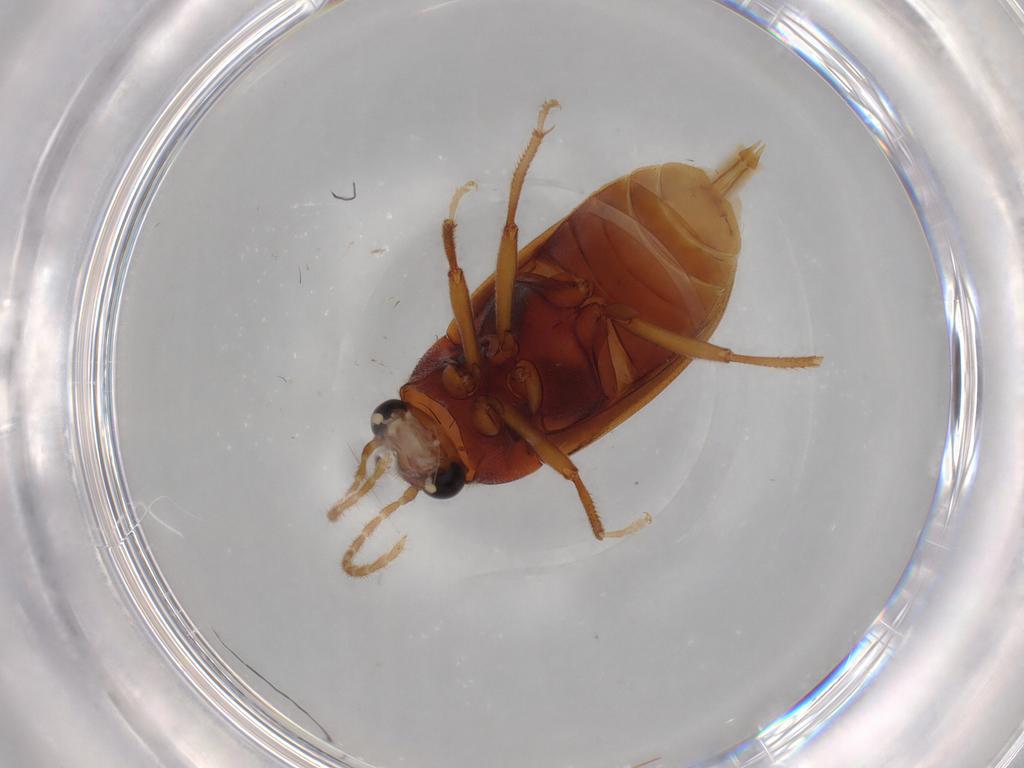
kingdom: Animalia
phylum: Arthropoda
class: Insecta
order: Coleoptera
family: Ptilodactylidae
